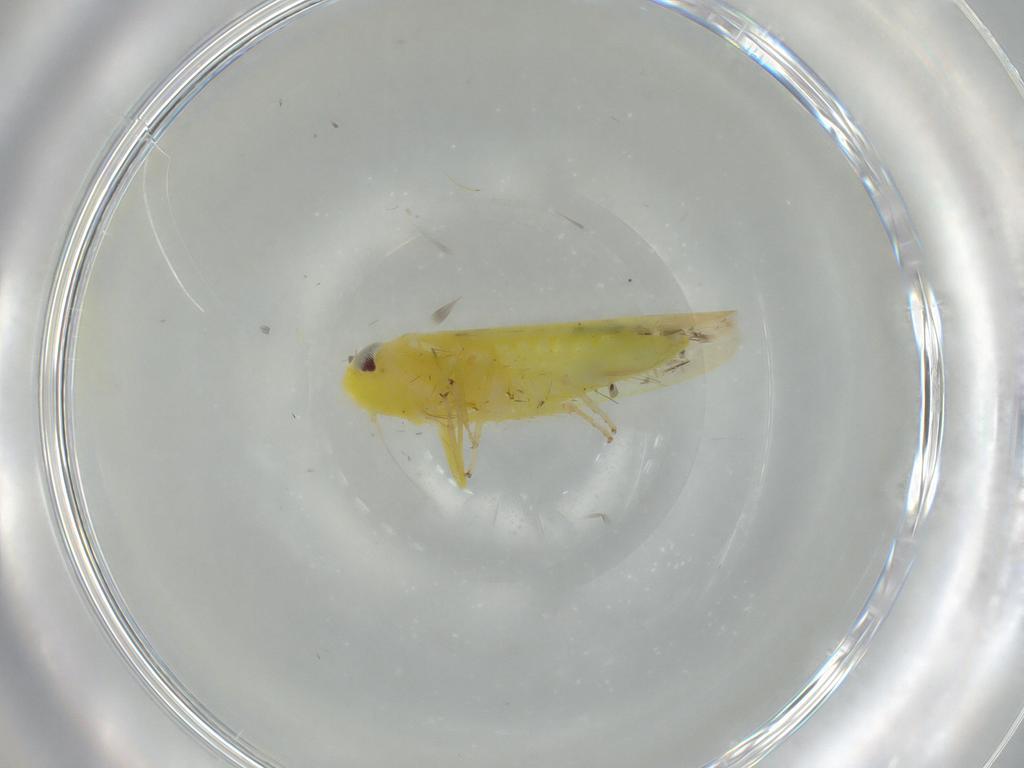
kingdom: Animalia
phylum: Arthropoda
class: Insecta
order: Hemiptera
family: Cicadellidae
